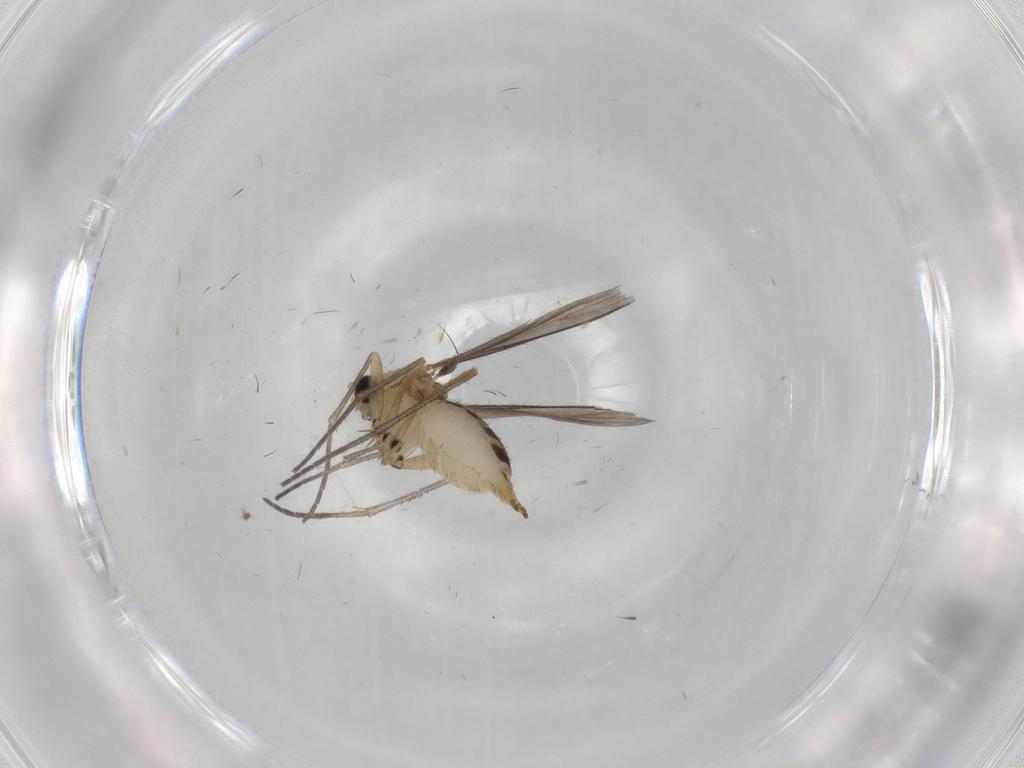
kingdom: Animalia
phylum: Arthropoda
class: Insecta
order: Diptera
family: Sciaridae
